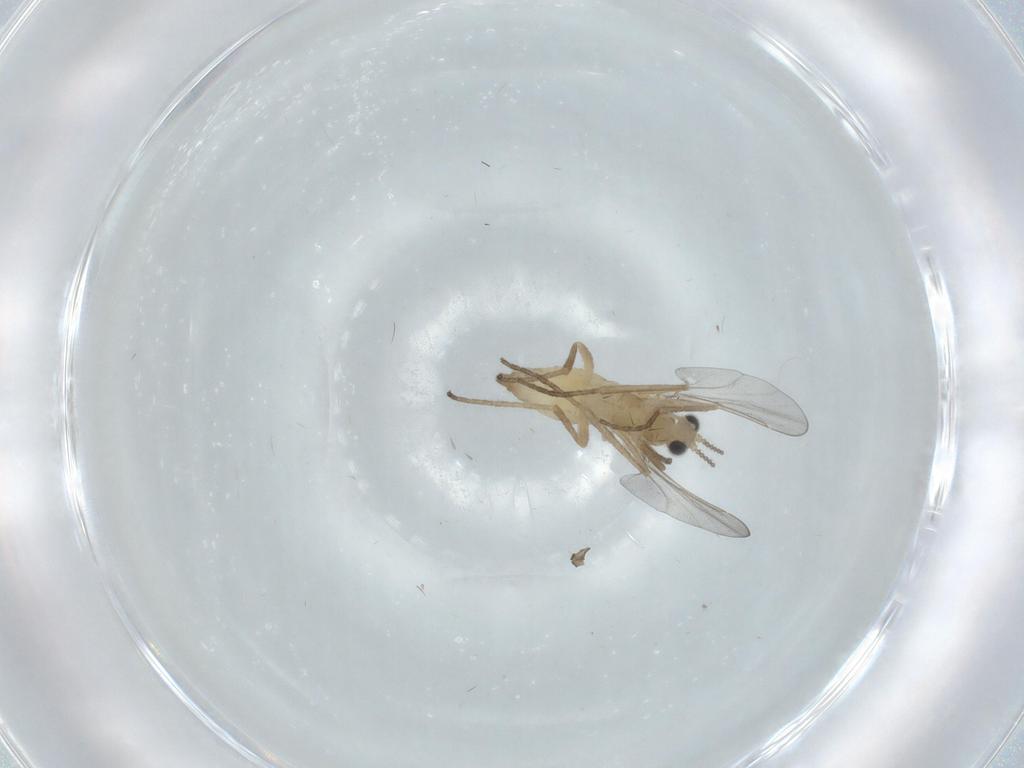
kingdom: Animalia
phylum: Arthropoda
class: Insecta
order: Diptera
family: Cecidomyiidae
